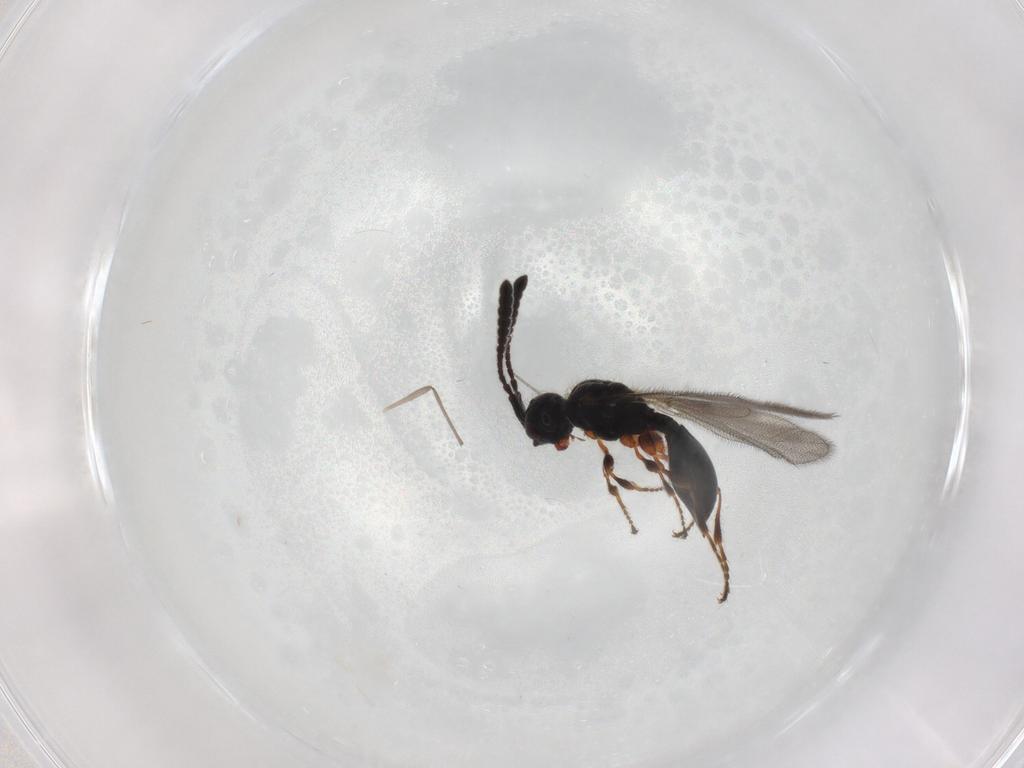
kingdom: Animalia
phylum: Arthropoda
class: Insecta
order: Hymenoptera
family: Diapriidae
